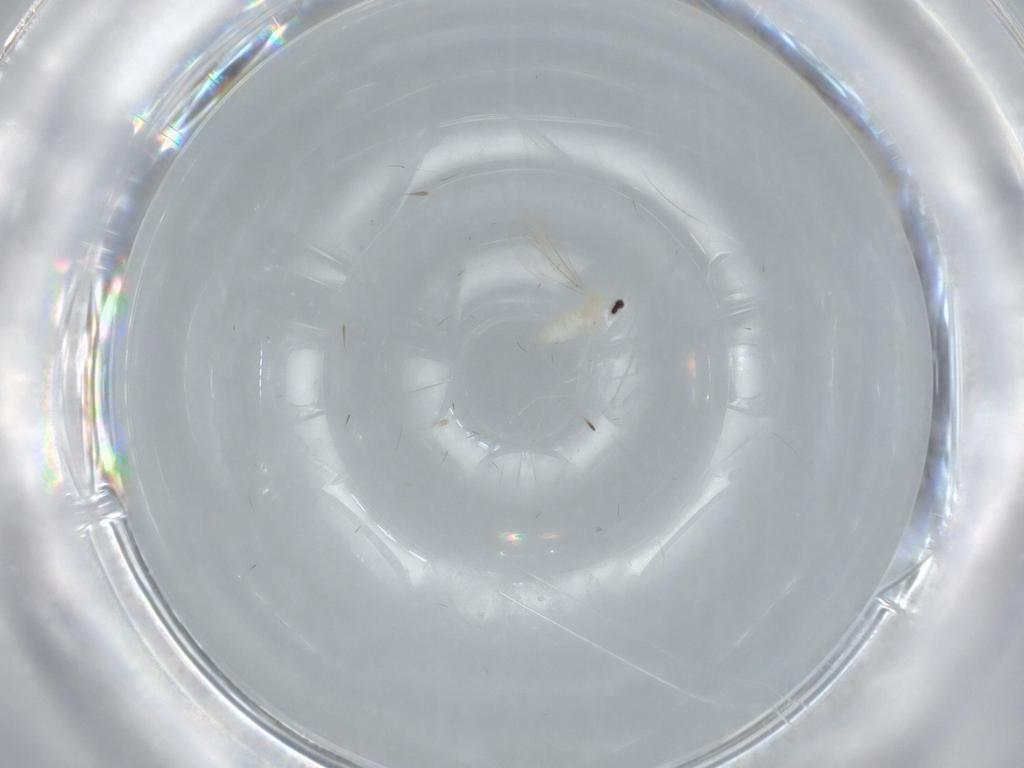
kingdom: Animalia
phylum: Arthropoda
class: Insecta
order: Diptera
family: Cecidomyiidae
